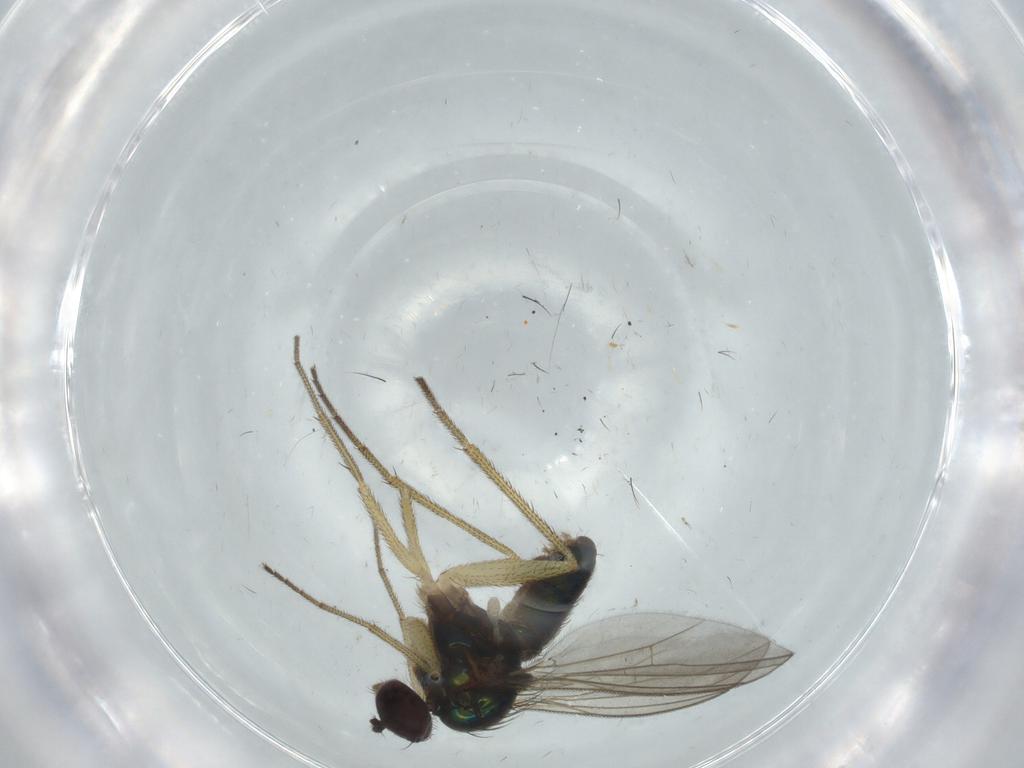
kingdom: Animalia
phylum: Arthropoda
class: Insecta
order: Diptera
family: Dolichopodidae
